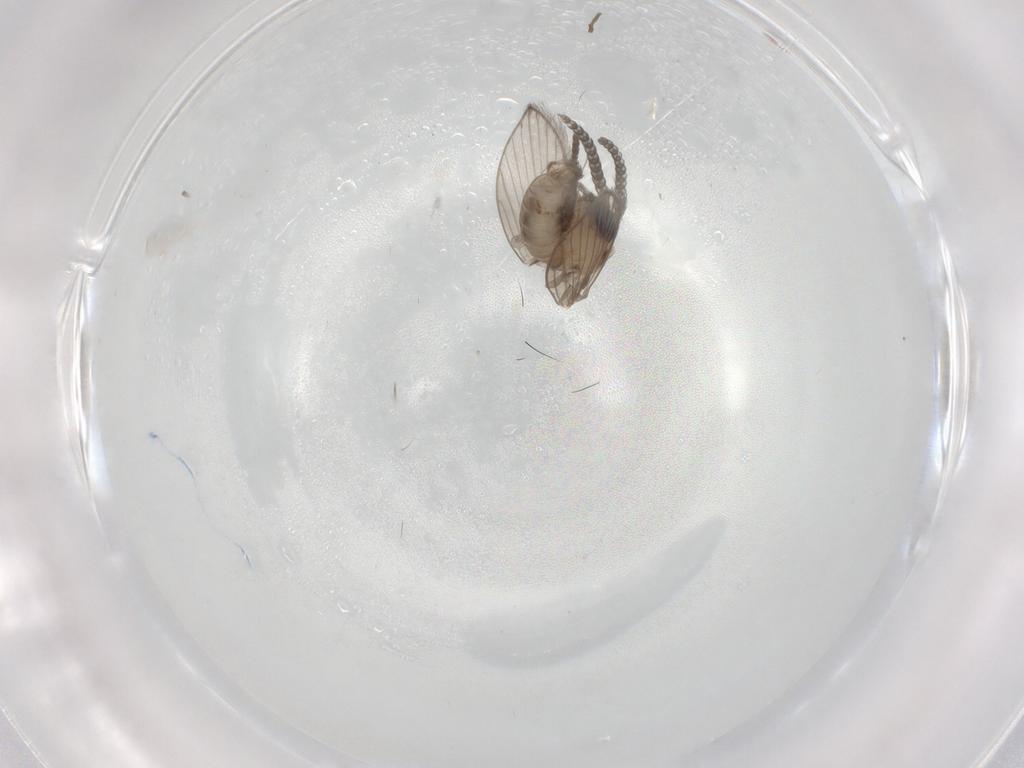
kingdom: Animalia
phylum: Arthropoda
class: Insecta
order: Diptera
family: Psychodidae
